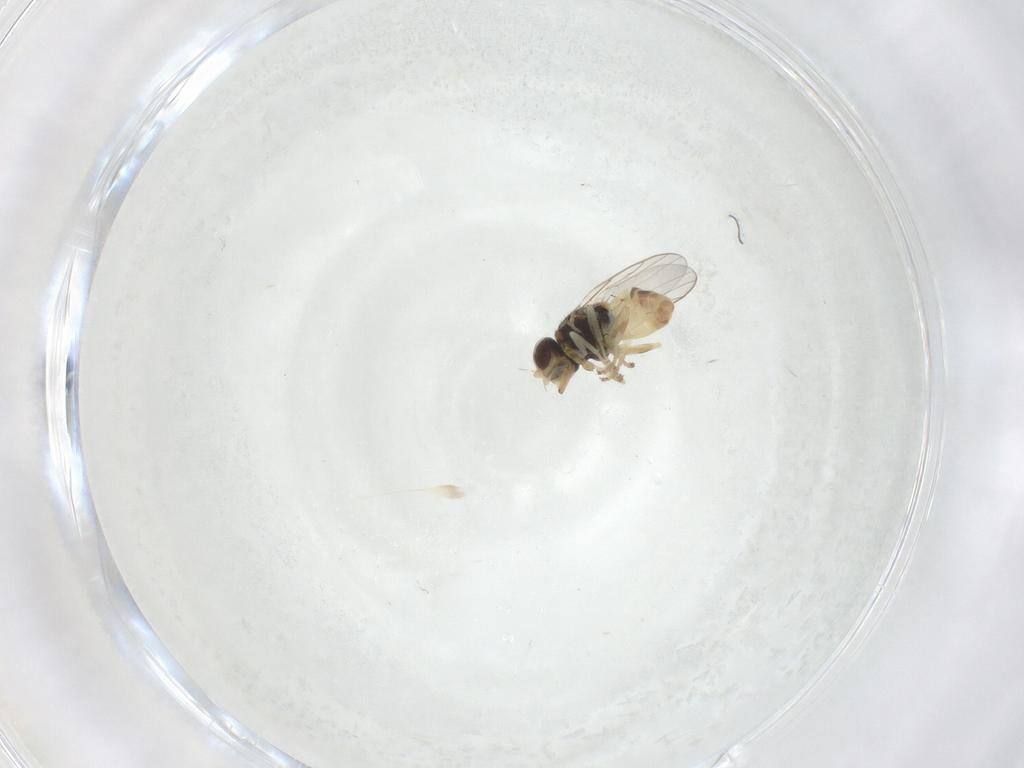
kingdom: Animalia
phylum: Arthropoda
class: Insecta
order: Diptera
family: Chloropidae
